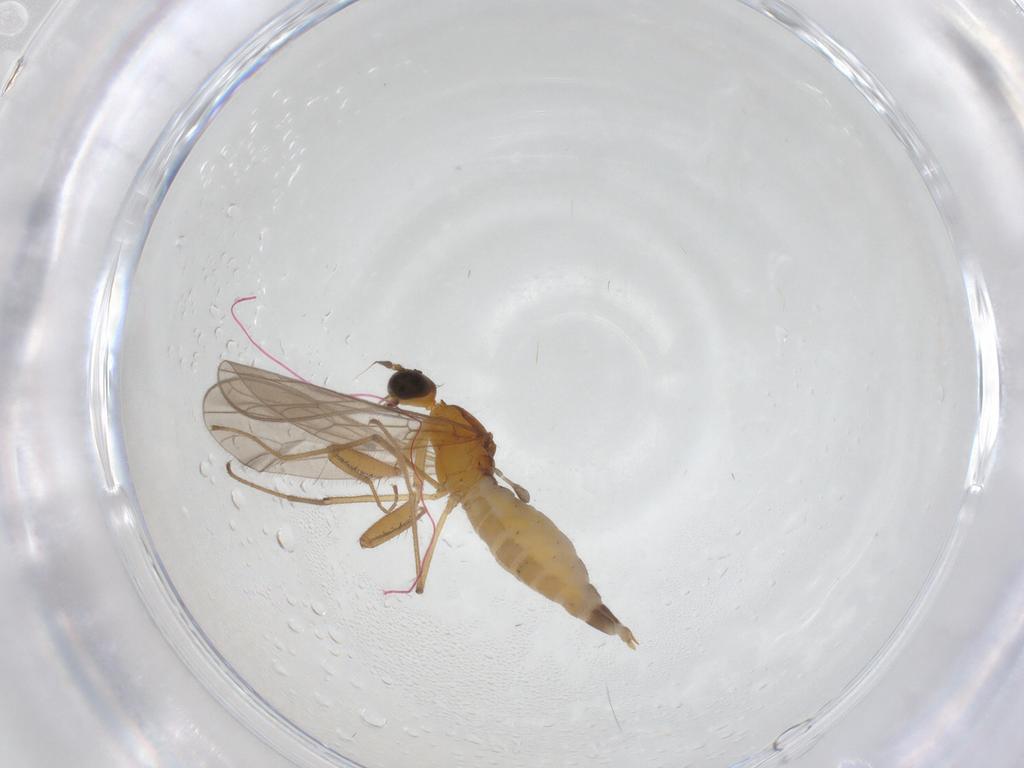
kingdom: Animalia
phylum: Arthropoda
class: Insecta
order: Diptera
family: Empididae
